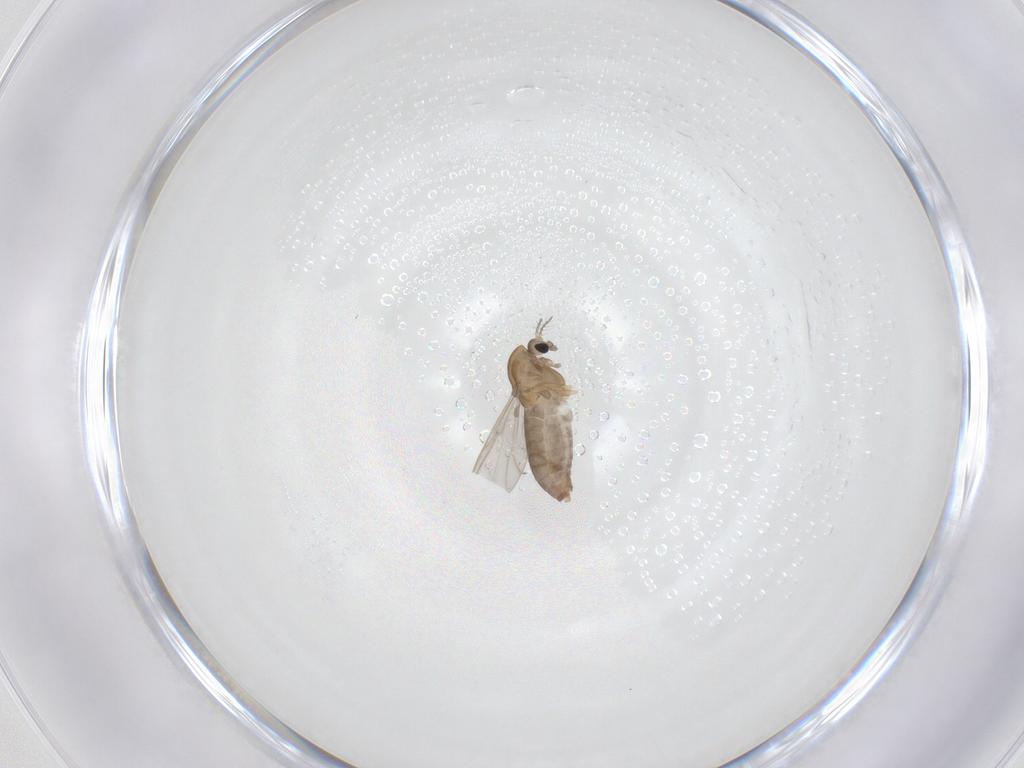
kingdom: Animalia
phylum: Arthropoda
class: Insecta
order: Diptera
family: Chironomidae
